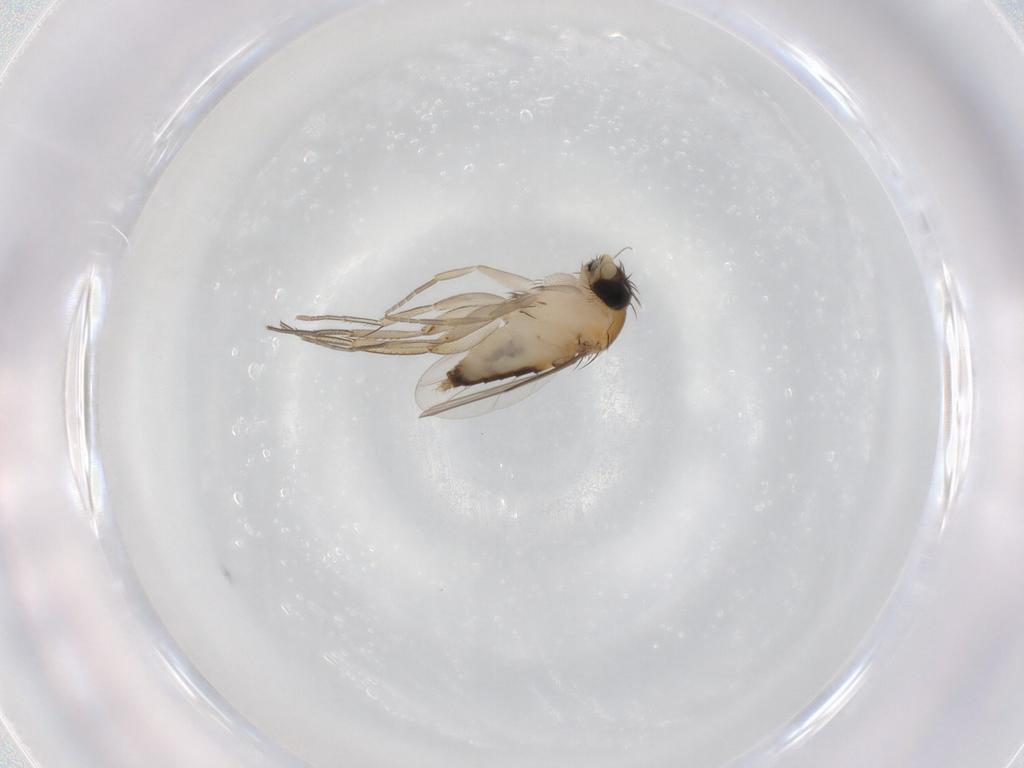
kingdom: Animalia
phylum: Arthropoda
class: Insecta
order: Diptera
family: Phoridae
